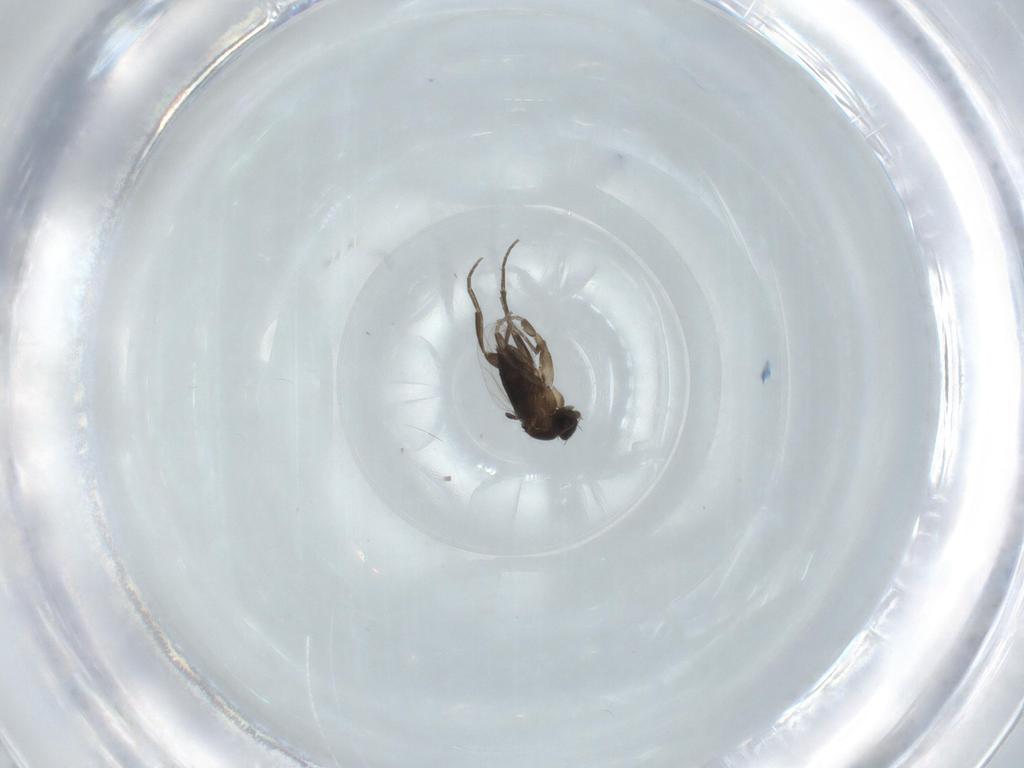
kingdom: Animalia
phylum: Arthropoda
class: Insecta
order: Diptera
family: Phoridae
